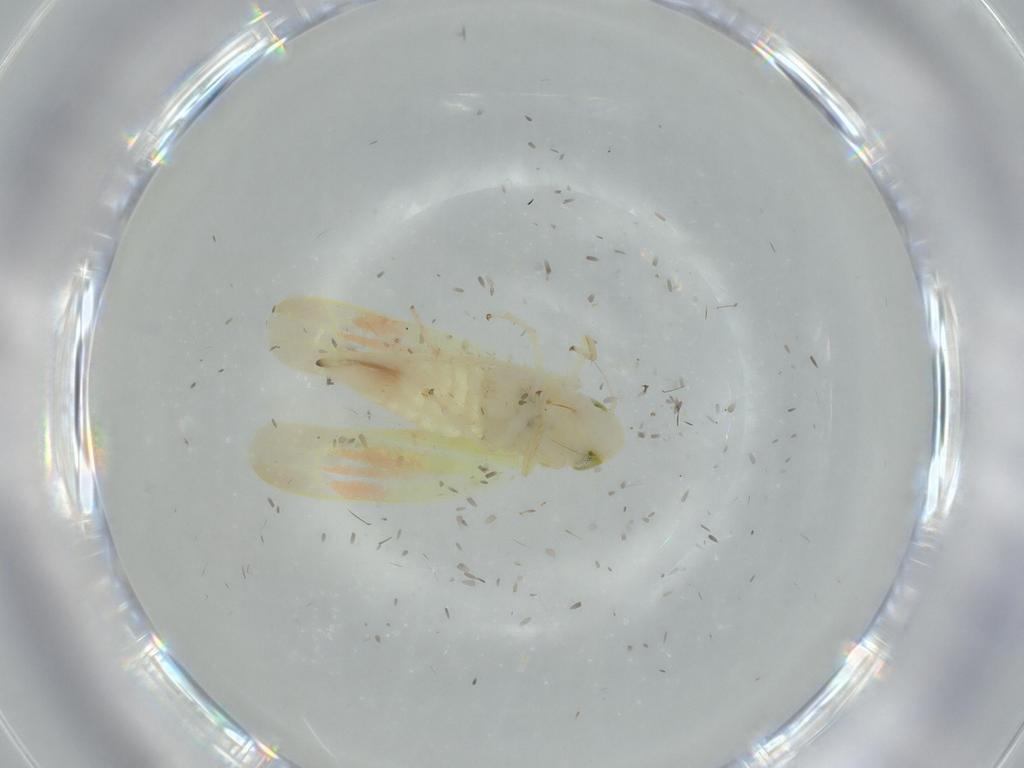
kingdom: Animalia
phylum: Arthropoda
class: Insecta
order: Hemiptera
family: Cicadellidae
